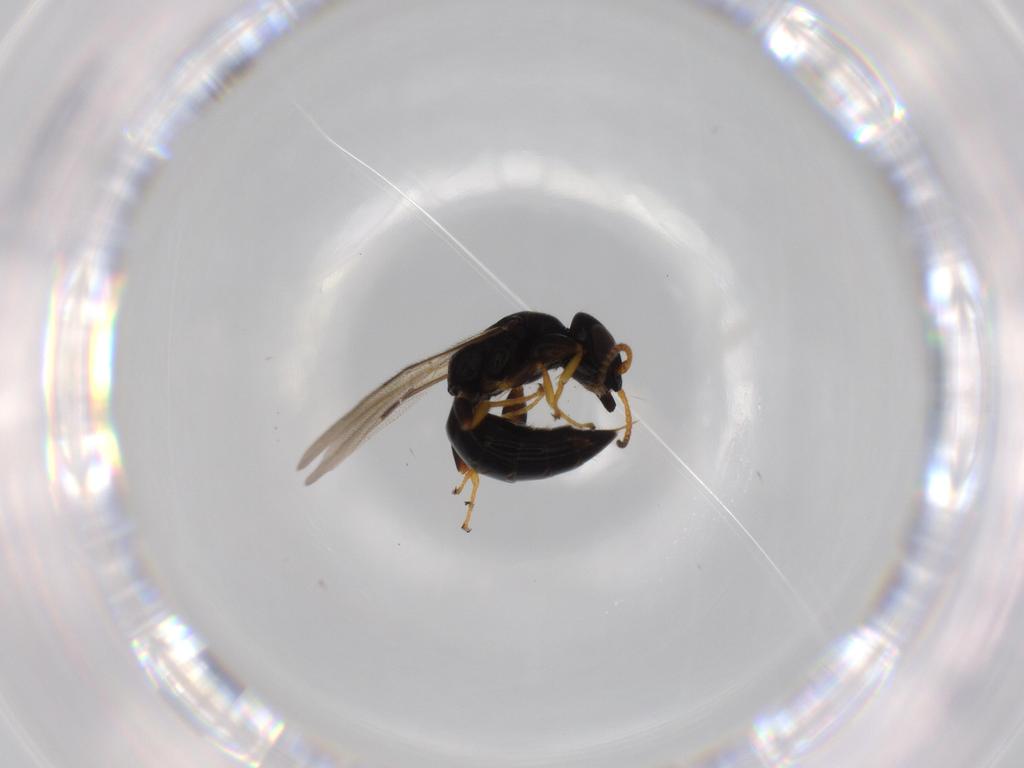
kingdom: Animalia
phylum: Arthropoda
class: Insecta
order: Hymenoptera
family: Bethylidae
